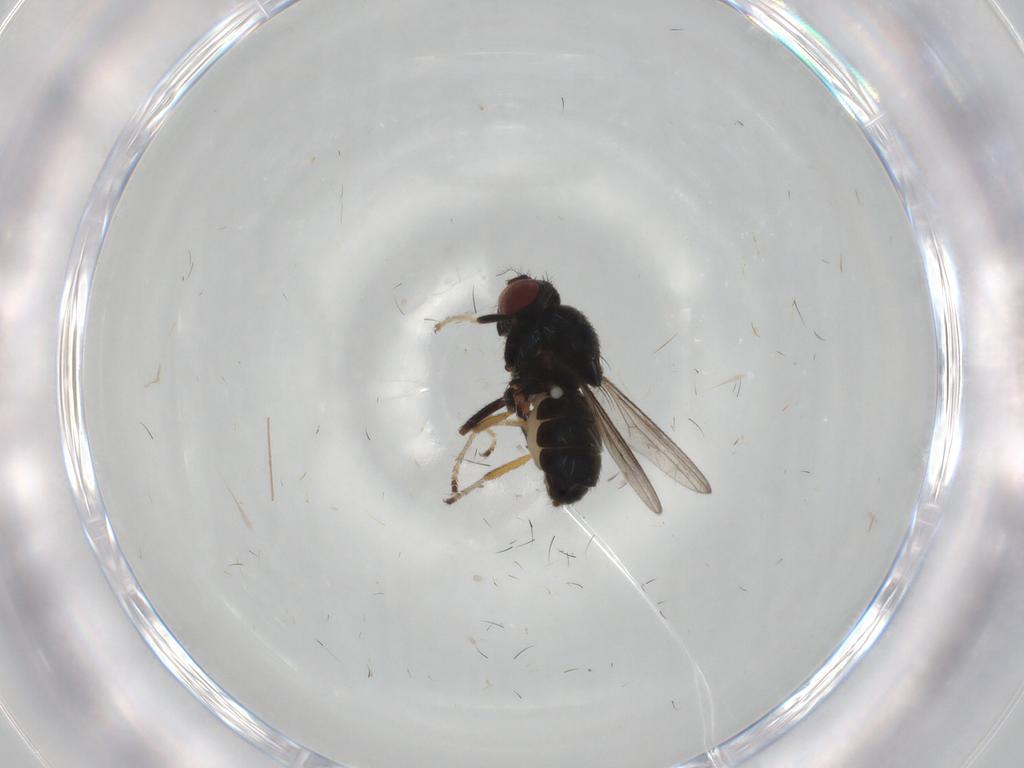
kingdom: Animalia
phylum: Arthropoda
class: Insecta
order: Diptera
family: Ephydridae
